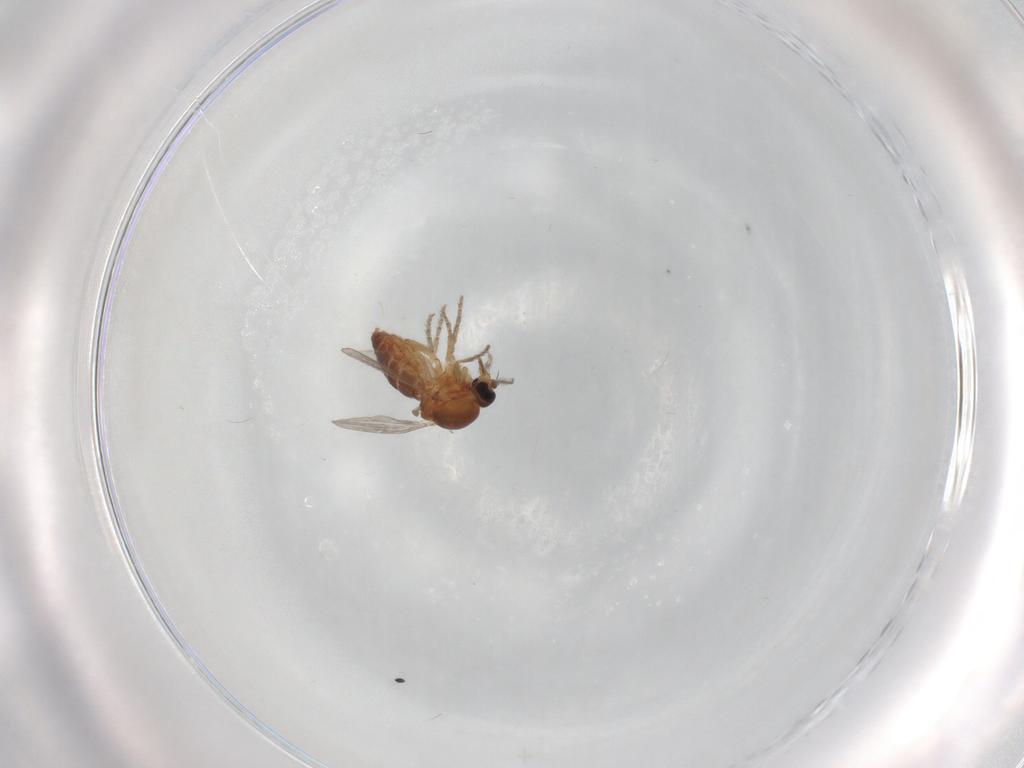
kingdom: Animalia
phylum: Arthropoda
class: Insecta
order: Diptera
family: Ceratopogonidae
